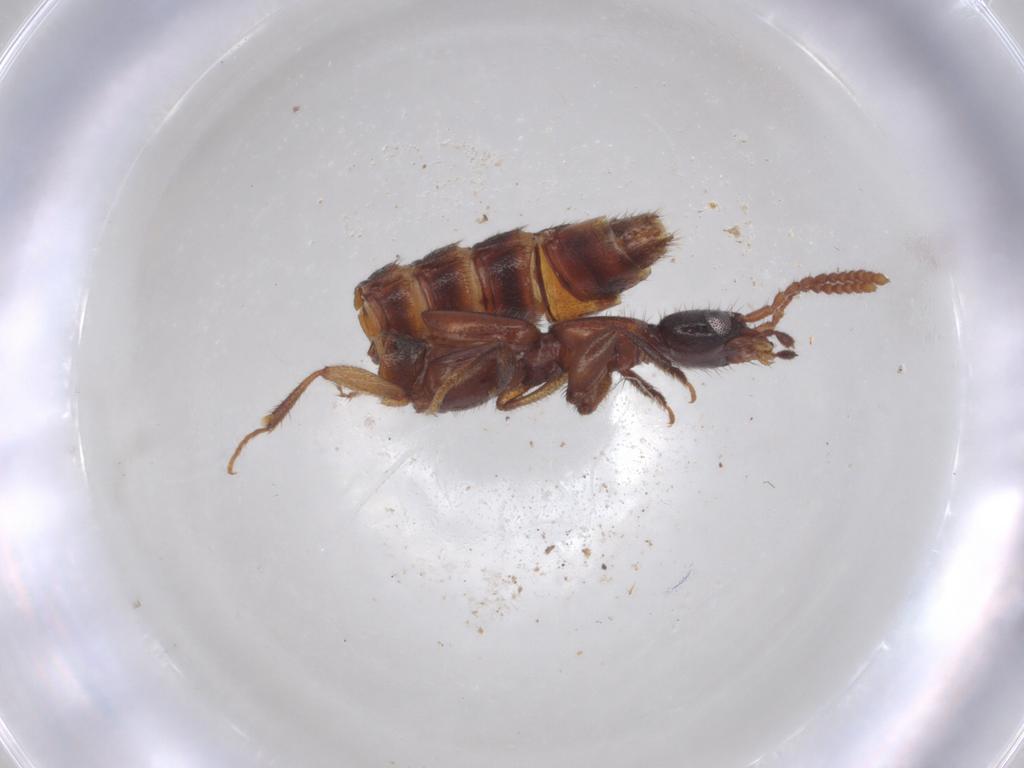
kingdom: Animalia
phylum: Arthropoda
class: Insecta
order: Coleoptera
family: Staphylinidae
